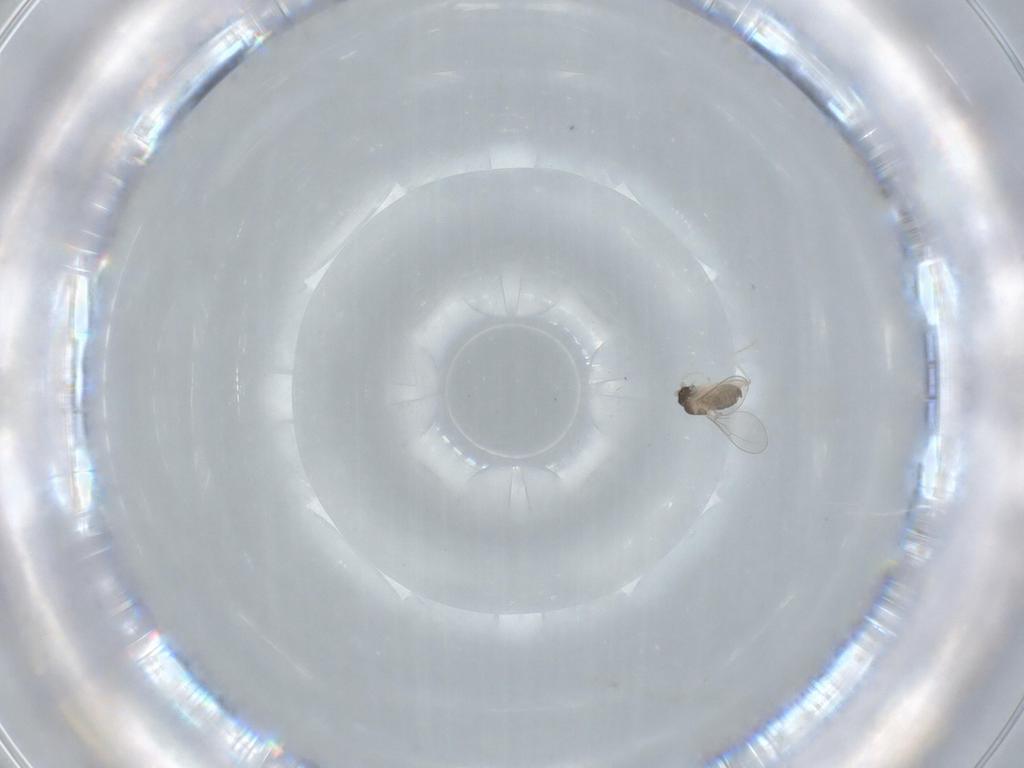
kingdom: Animalia
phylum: Arthropoda
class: Insecta
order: Diptera
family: Cecidomyiidae
